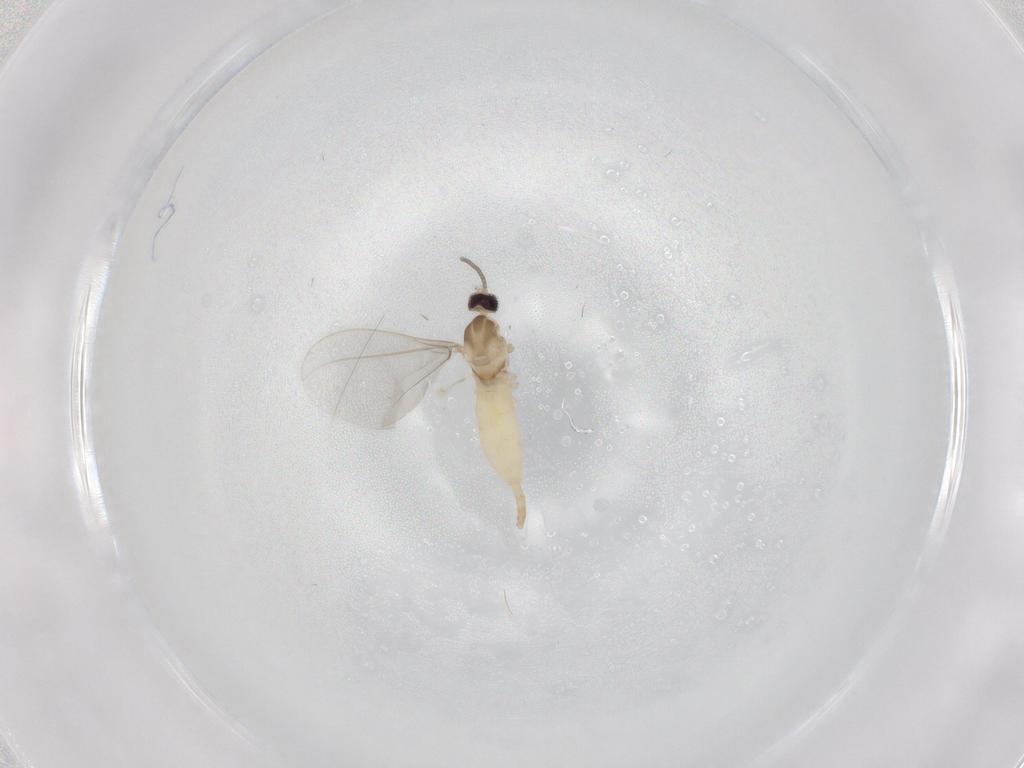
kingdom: Animalia
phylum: Arthropoda
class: Insecta
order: Diptera
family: Cecidomyiidae
